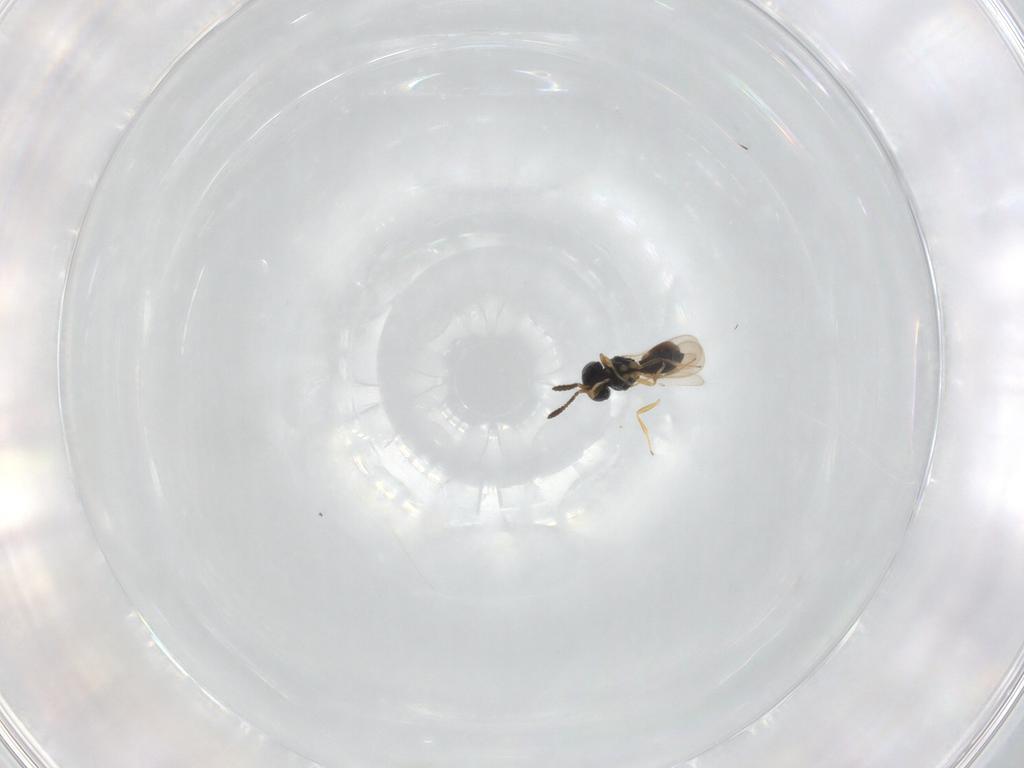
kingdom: Animalia
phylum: Arthropoda
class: Insecta
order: Hymenoptera
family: Scelionidae
